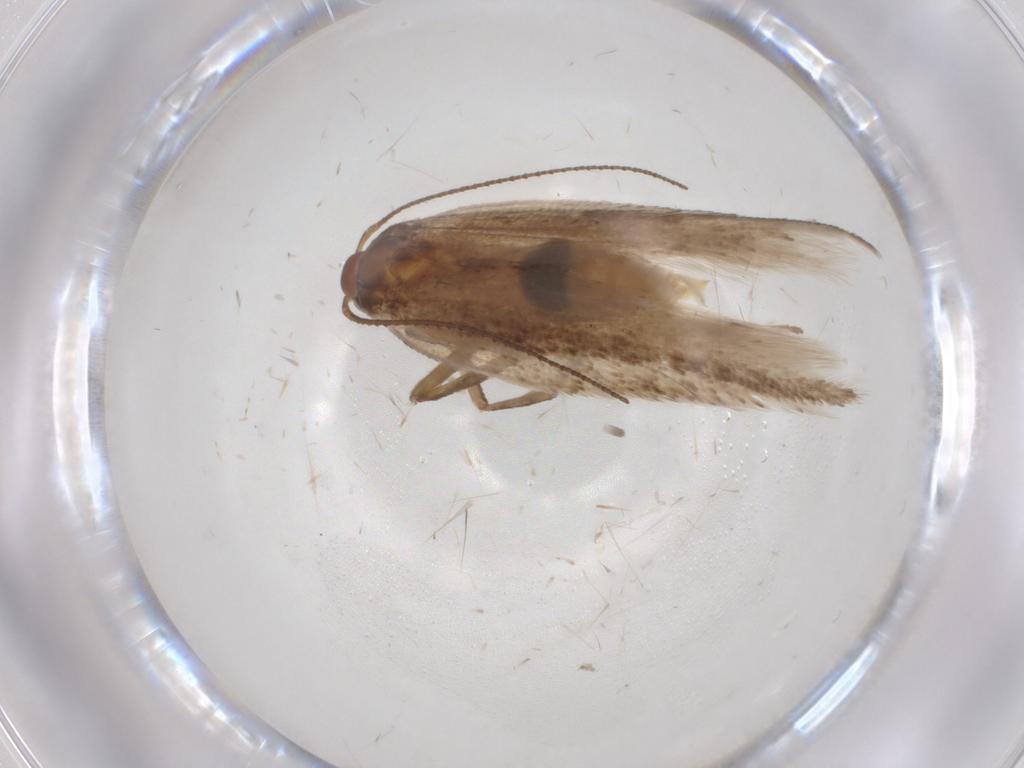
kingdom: Animalia
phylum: Arthropoda
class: Insecta
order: Lepidoptera
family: Gelechiidae
